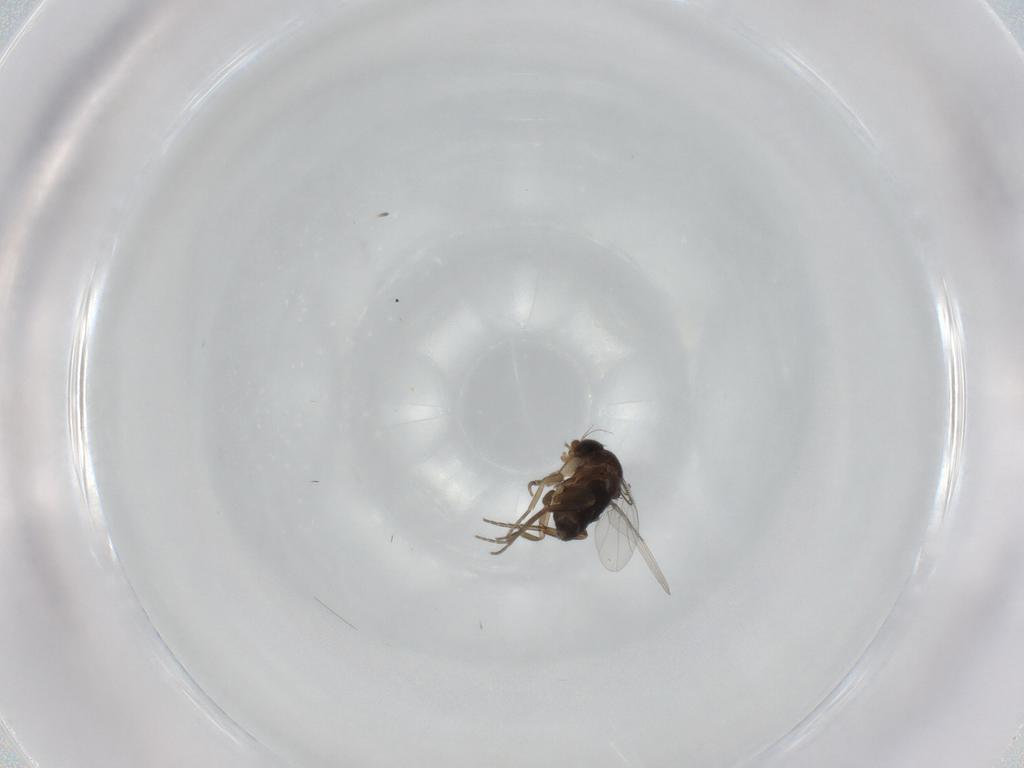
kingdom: Animalia
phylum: Arthropoda
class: Insecta
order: Diptera
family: Phoridae
